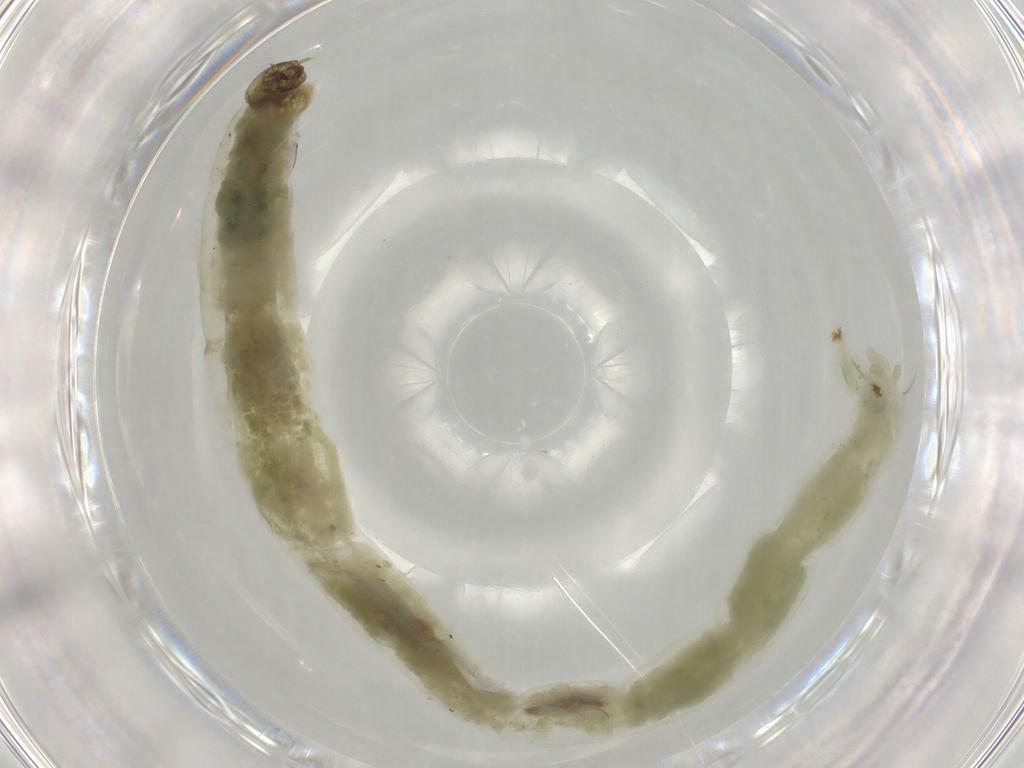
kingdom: Animalia
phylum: Arthropoda
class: Insecta
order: Diptera
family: Chironomidae
